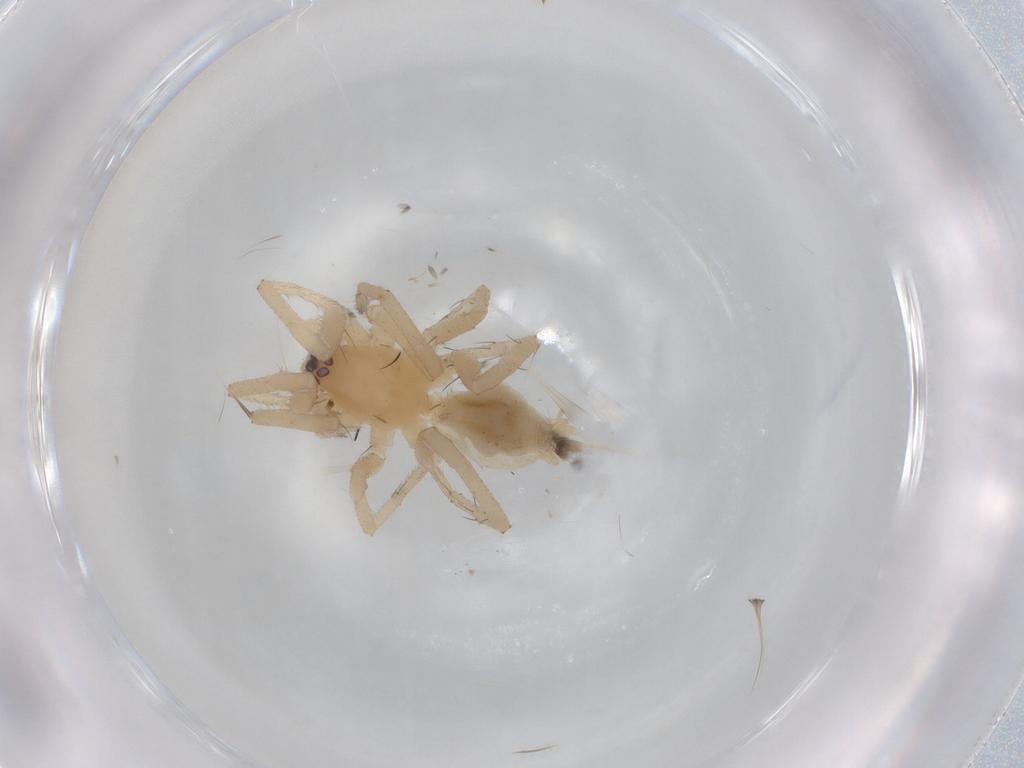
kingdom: Animalia
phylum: Arthropoda
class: Arachnida
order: Araneae
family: Gnaphosidae
